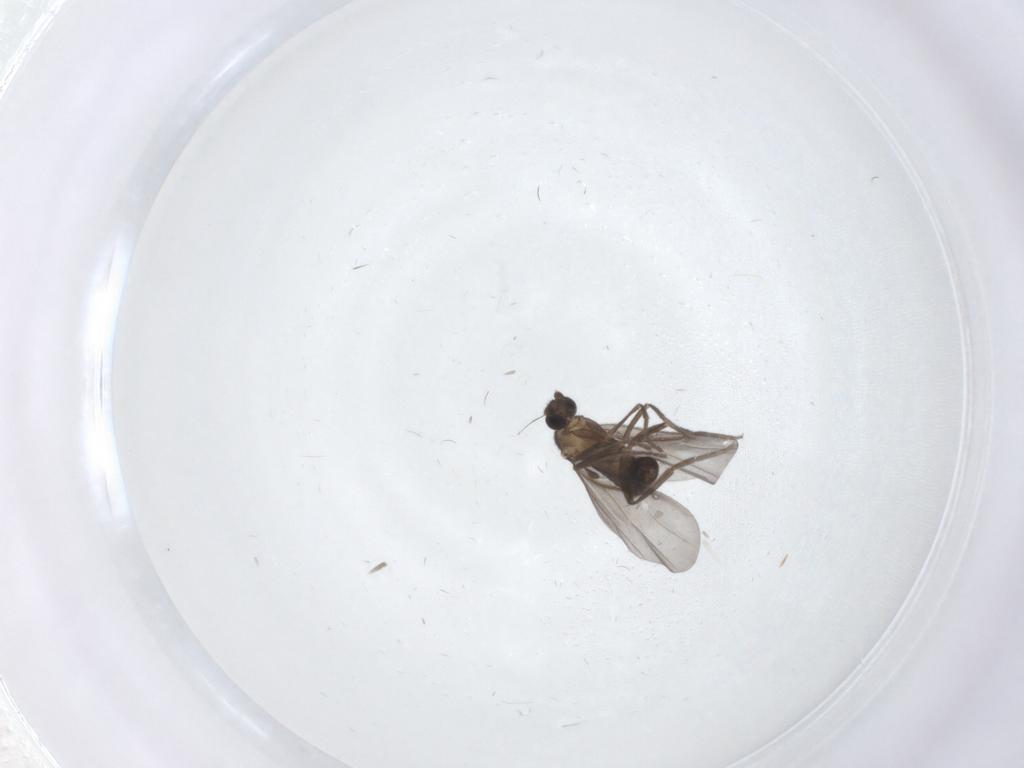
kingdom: Animalia
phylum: Arthropoda
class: Insecta
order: Diptera
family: Phoridae
